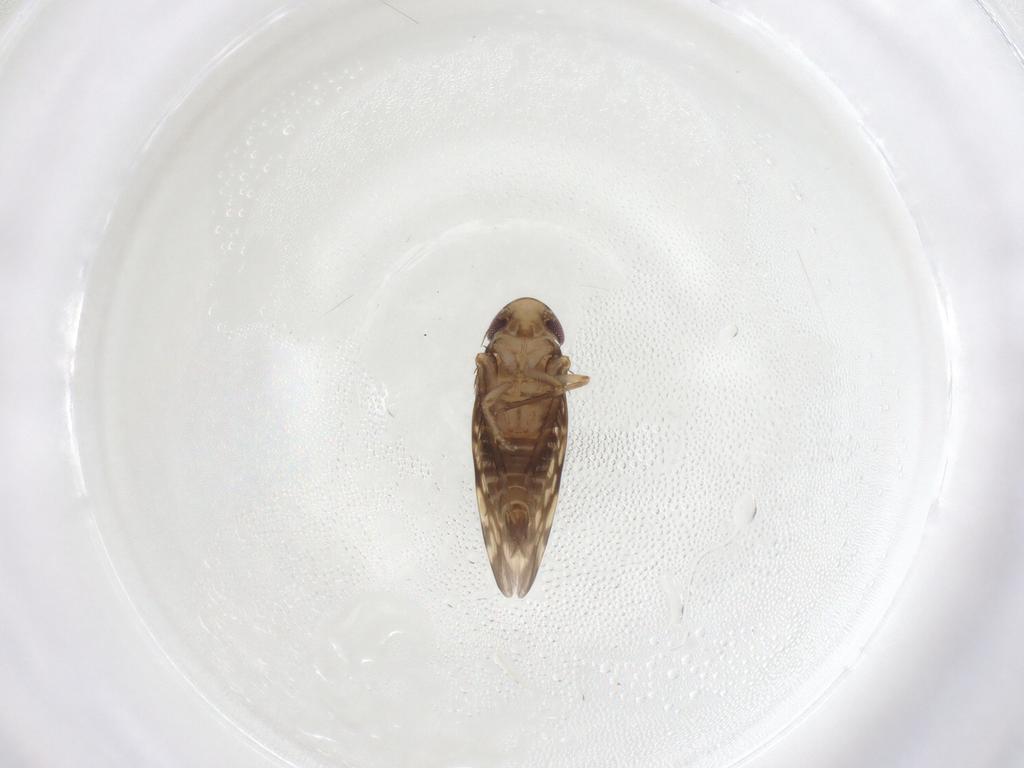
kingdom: Animalia
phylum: Arthropoda
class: Insecta
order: Hemiptera
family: Cicadellidae
